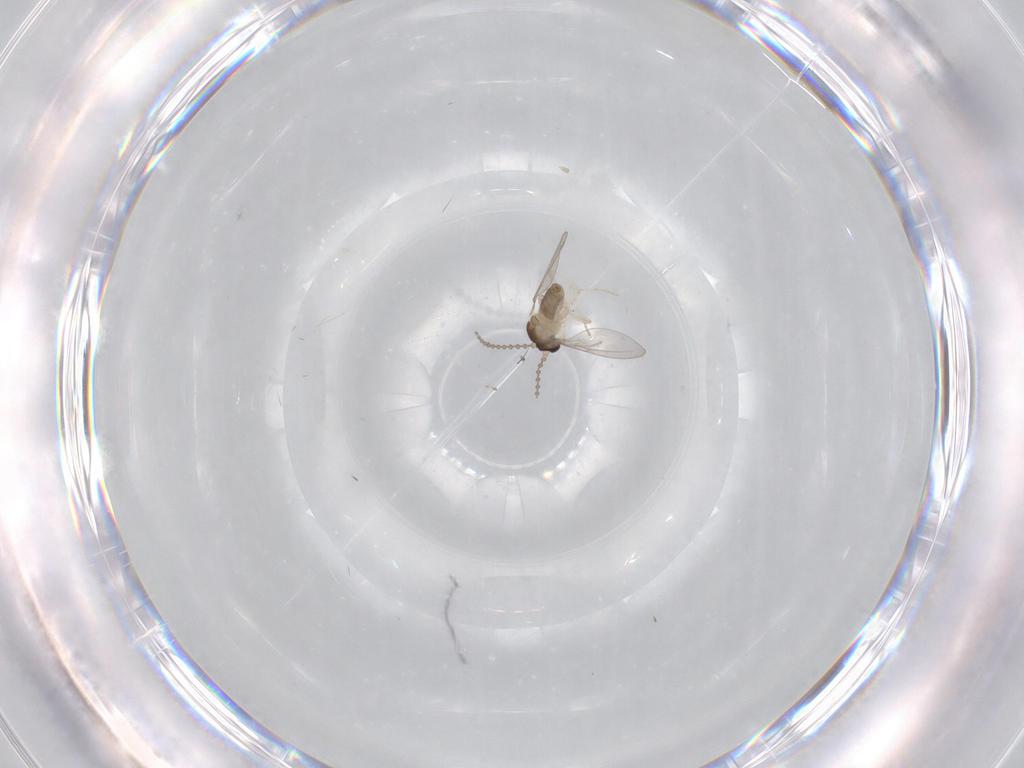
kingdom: Animalia
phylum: Arthropoda
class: Insecta
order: Diptera
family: Cecidomyiidae
